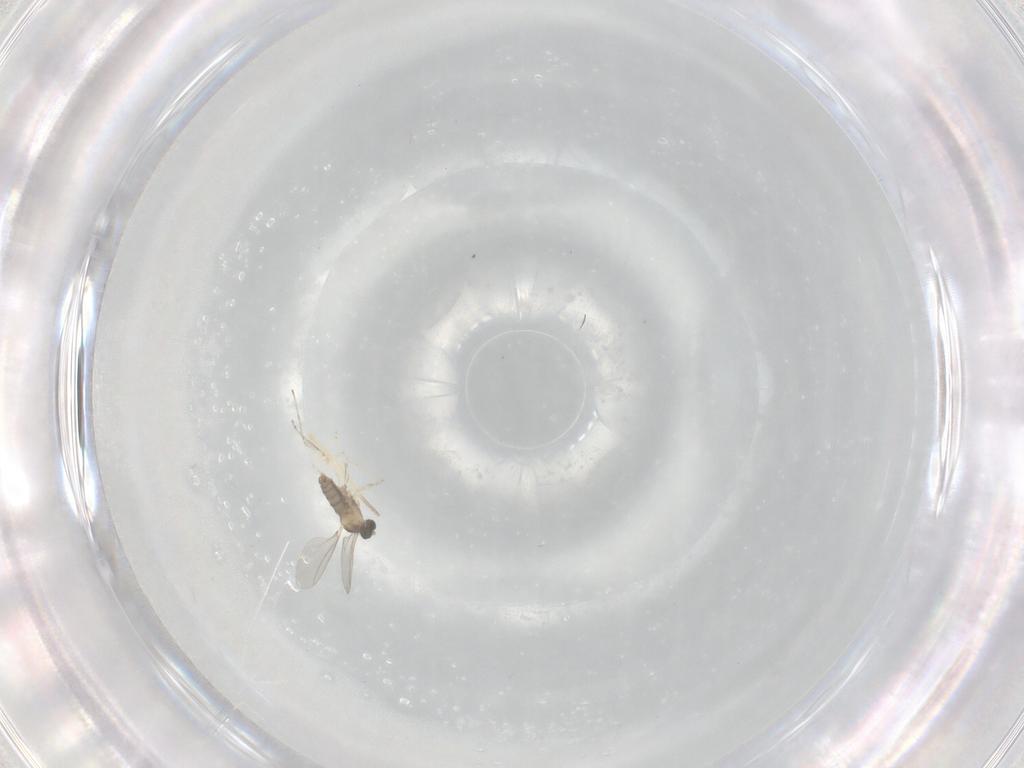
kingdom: Animalia
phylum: Arthropoda
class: Insecta
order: Diptera
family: Chironomidae
